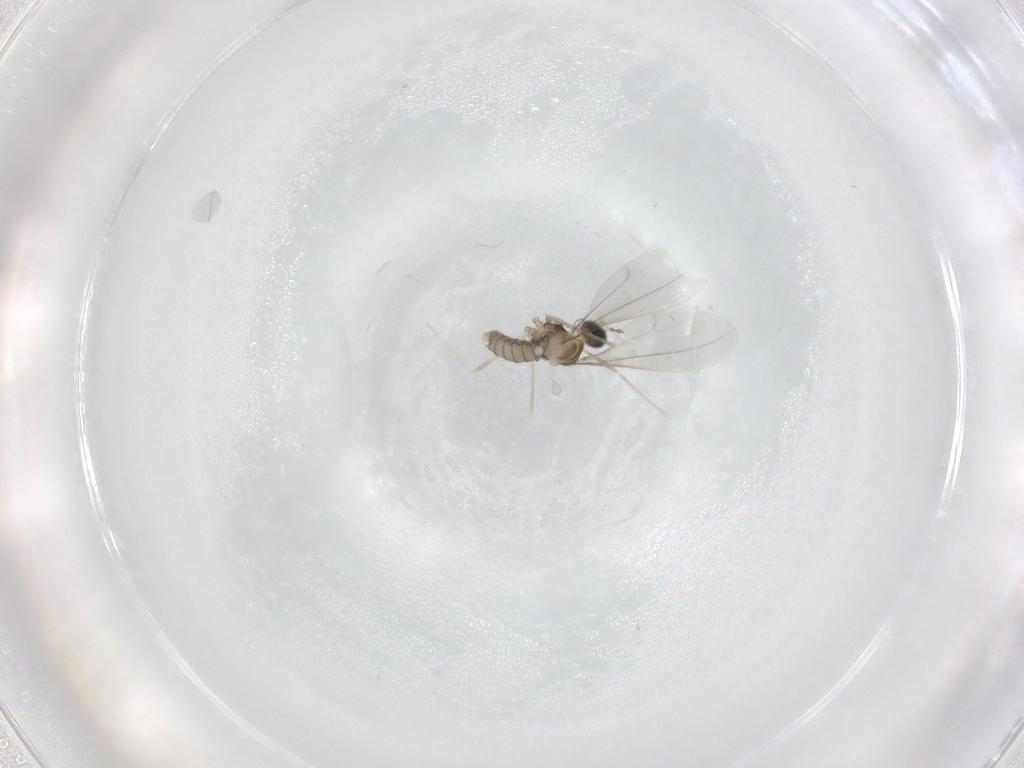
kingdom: Animalia
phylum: Arthropoda
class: Insecta
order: Diptera
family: Cecidomyiidae
